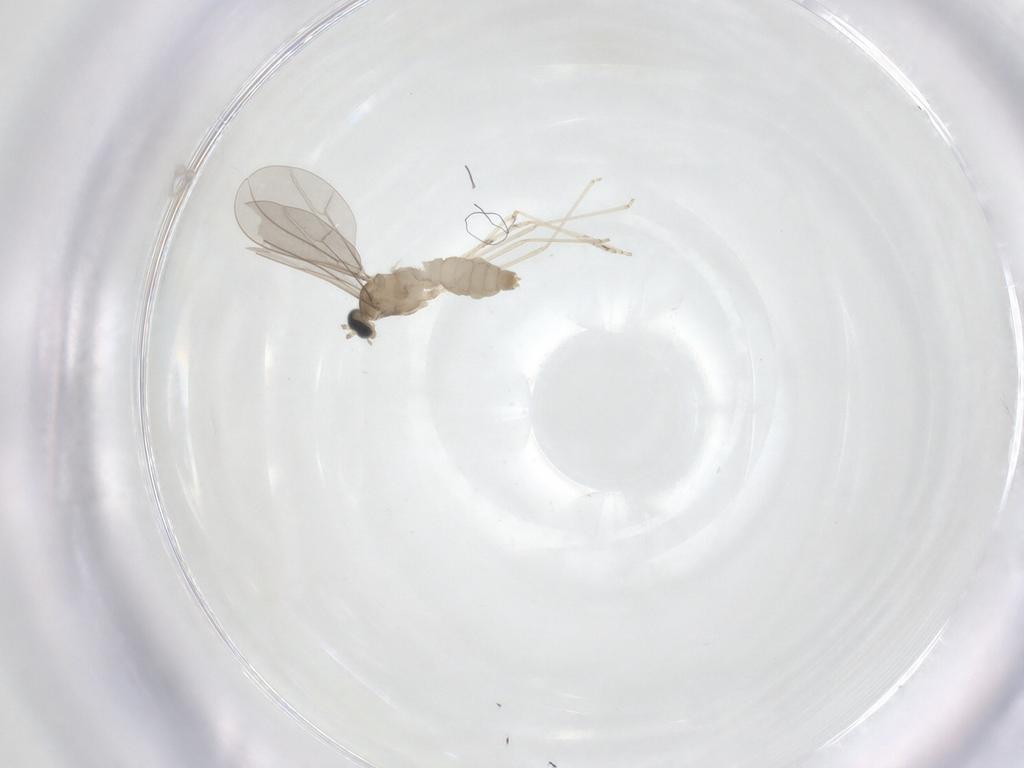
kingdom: Animalia
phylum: Arthropoda
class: Insecta
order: Diptera
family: Cecidomyiidae
